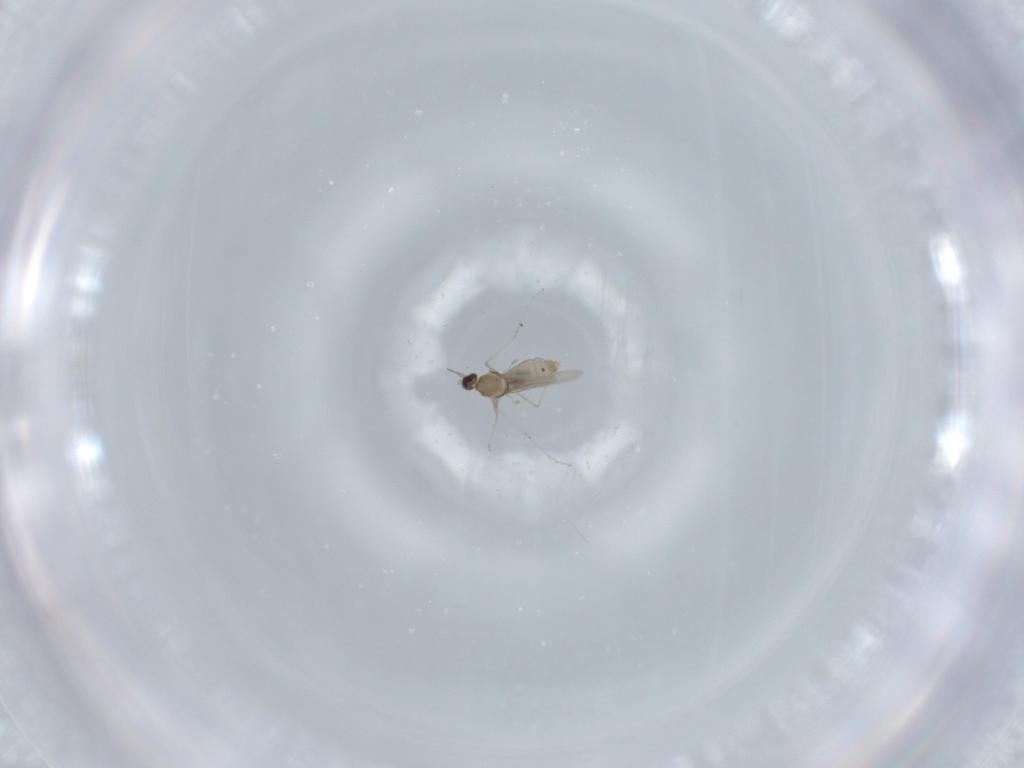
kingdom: Animalia
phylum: Arthropoda
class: Insecta
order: Diptera
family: Cecidomyiidae
